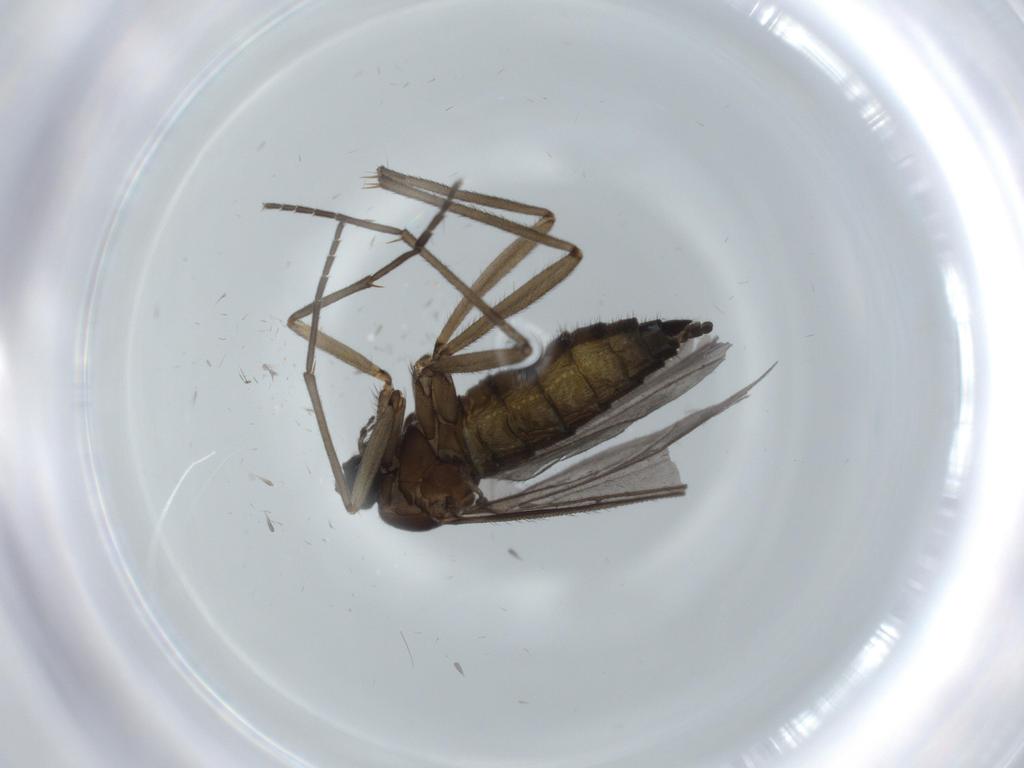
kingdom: Animalia
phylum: Arthropoda
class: Insecta
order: Diptera
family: Sciaridae
